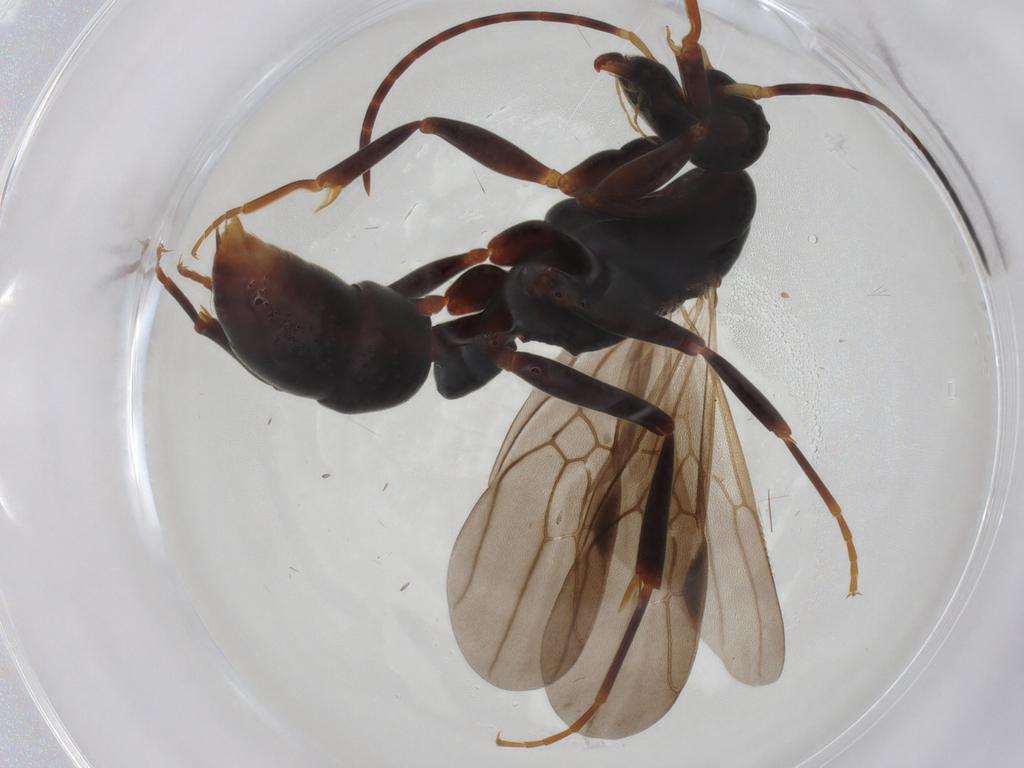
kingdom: Animalia
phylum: Arthropoda
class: Insecta
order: Hymenoptera
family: Formicidae
